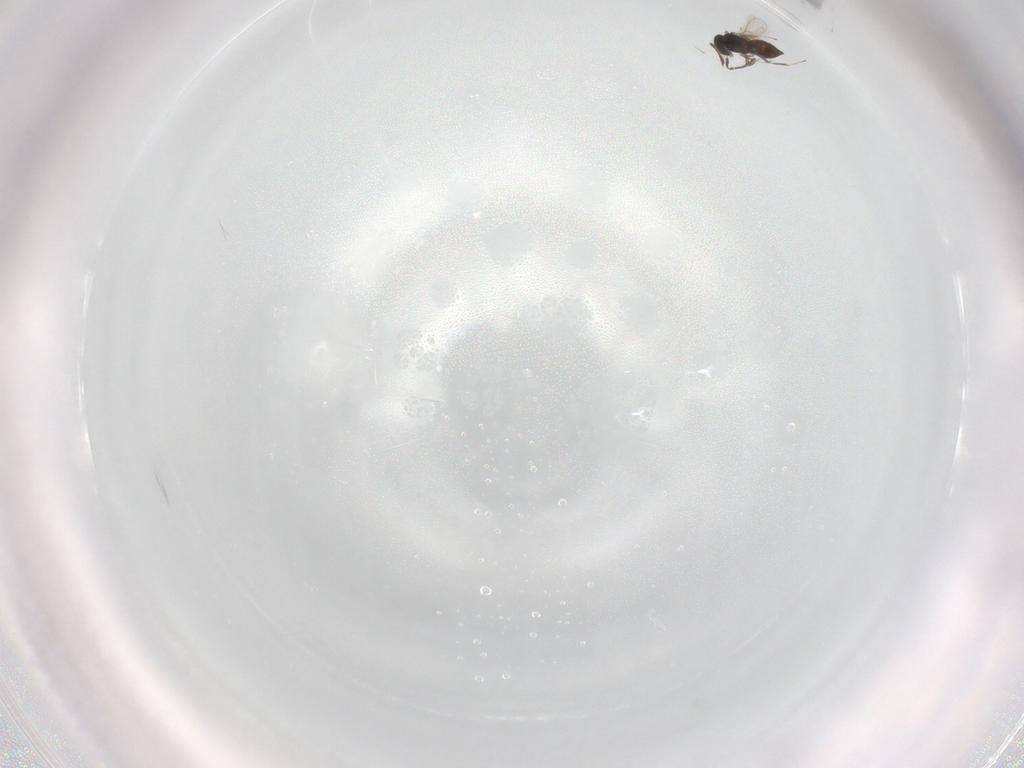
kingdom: Animalia
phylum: Arthropoda
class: Insecta
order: Hymenoptera
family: Scelionidae
